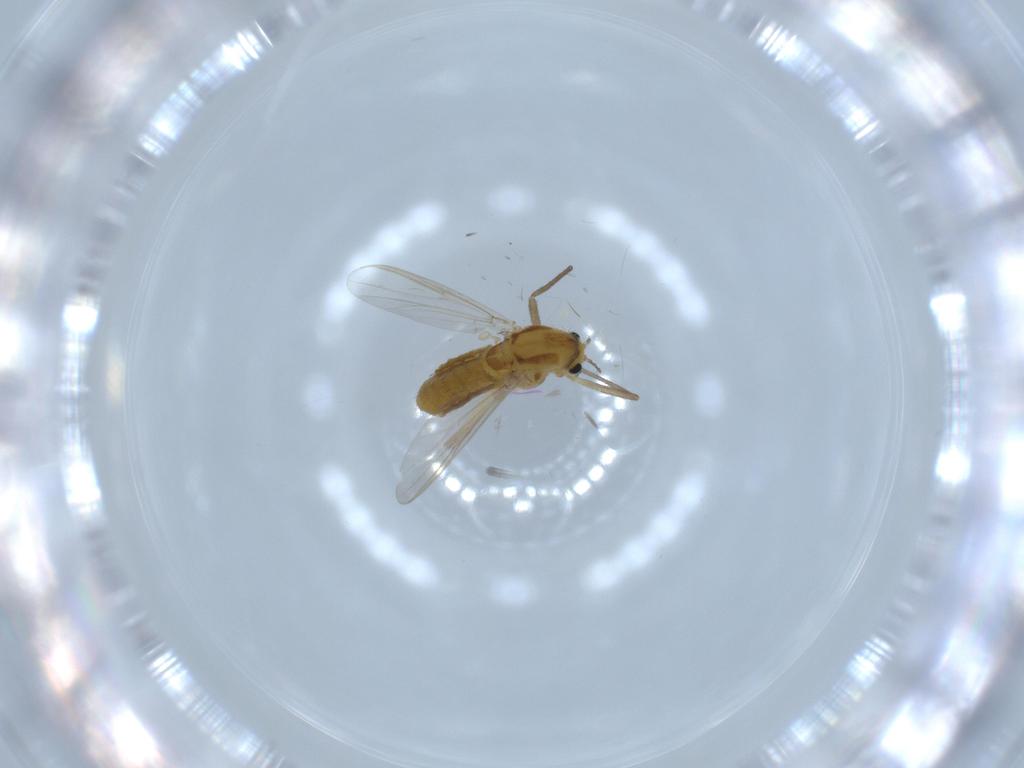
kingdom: Animalia
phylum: Arthropoda
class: Insecta
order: Diptera
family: Chironomidae
